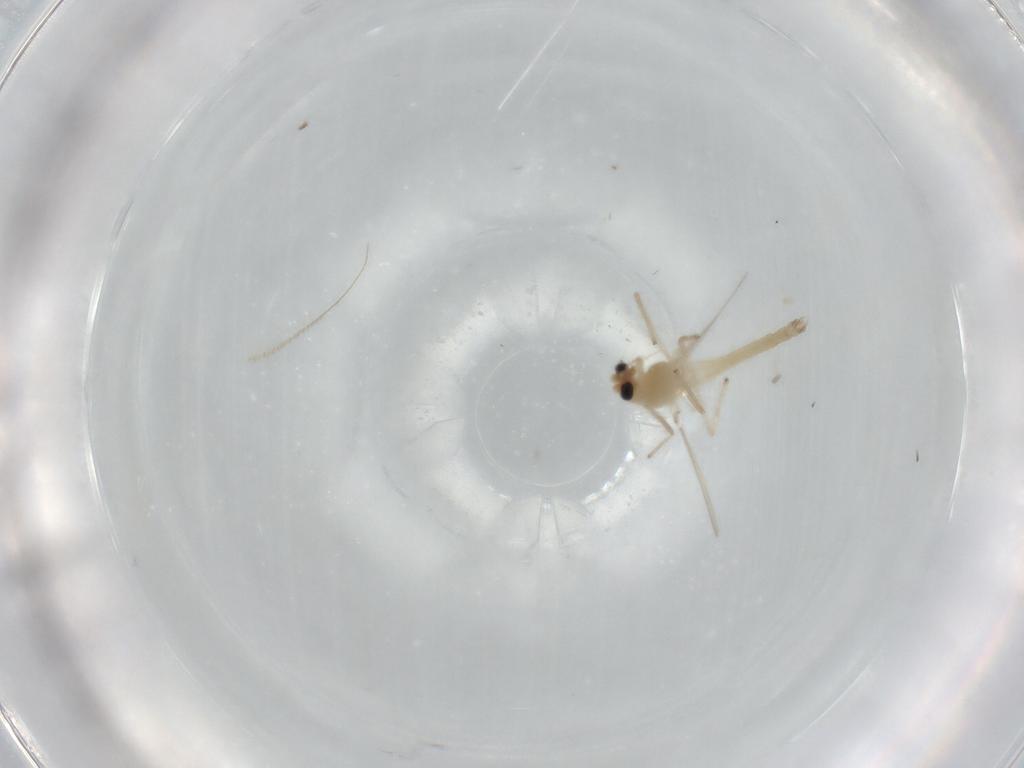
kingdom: Animalia
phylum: Arthropoda
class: Insecta
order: Diptera
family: Chironomidae
